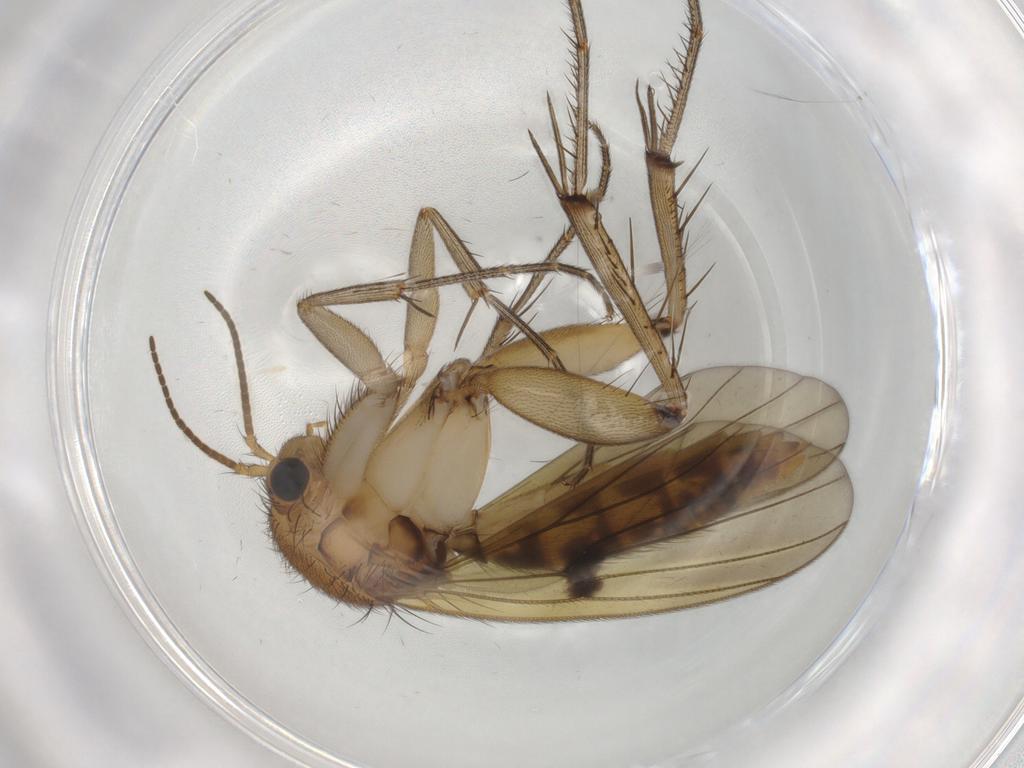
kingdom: Animalia
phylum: Arthropoda
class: Insecta
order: Diptera
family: Mycetophilidae
